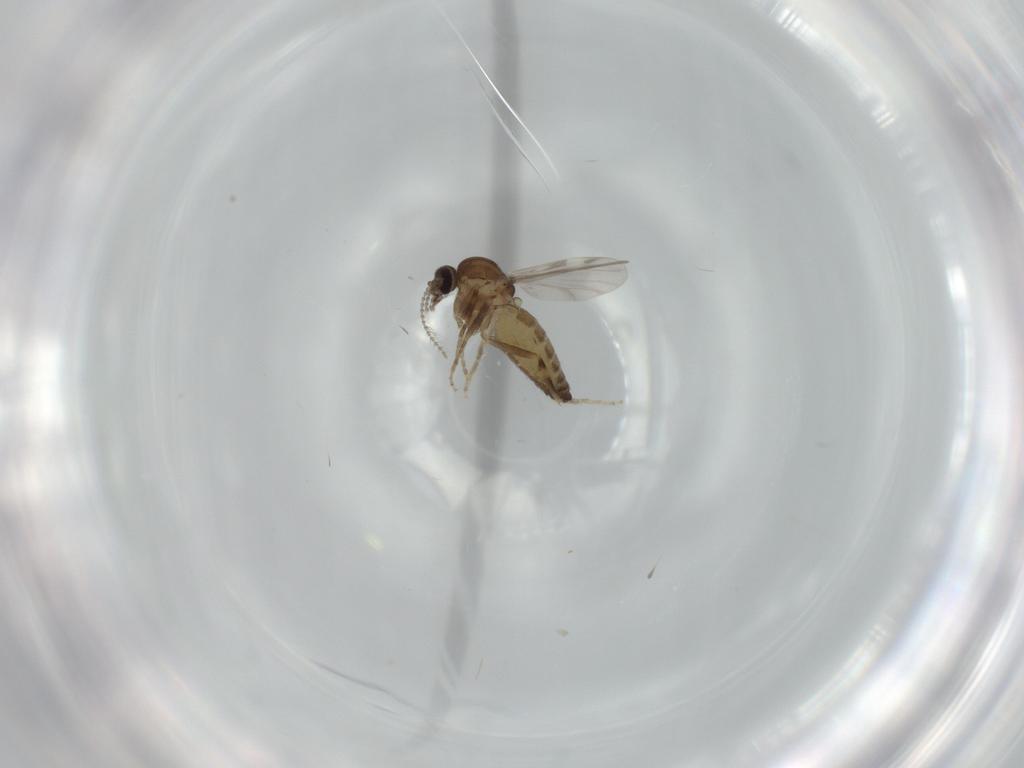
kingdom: Animalia
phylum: Arthropoda
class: Insecta
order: Diptera
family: Ceratopogonidae
